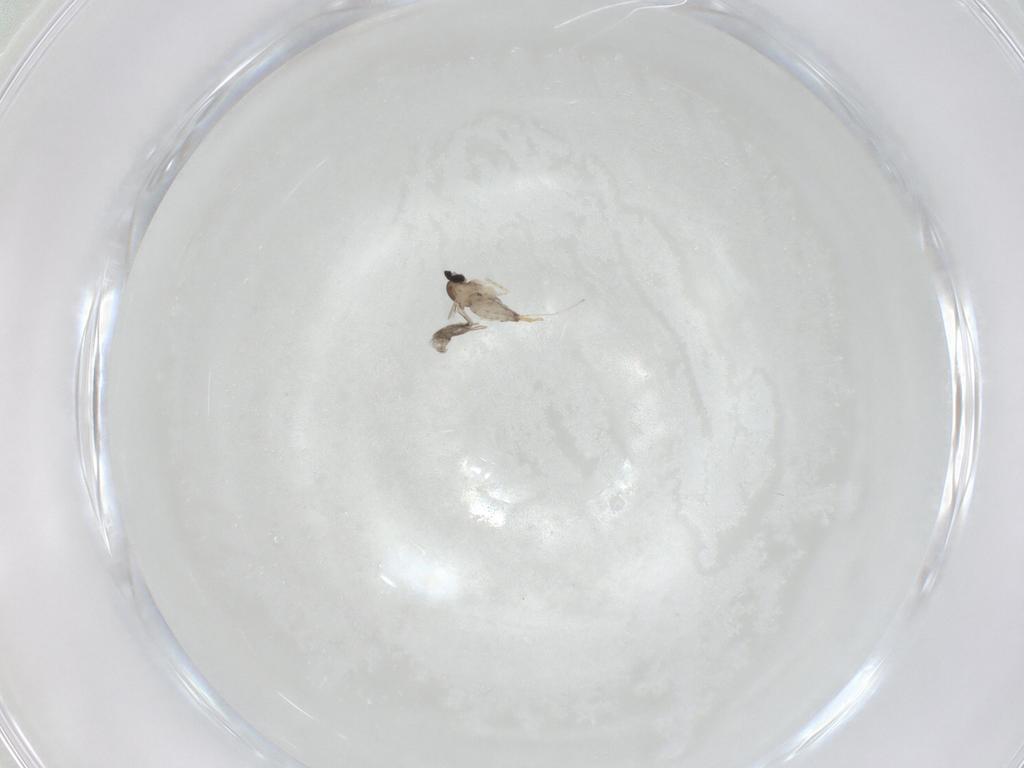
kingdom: Animalia
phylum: Arthropoda
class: Insecta
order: Diptera
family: Cecidomyiidae
